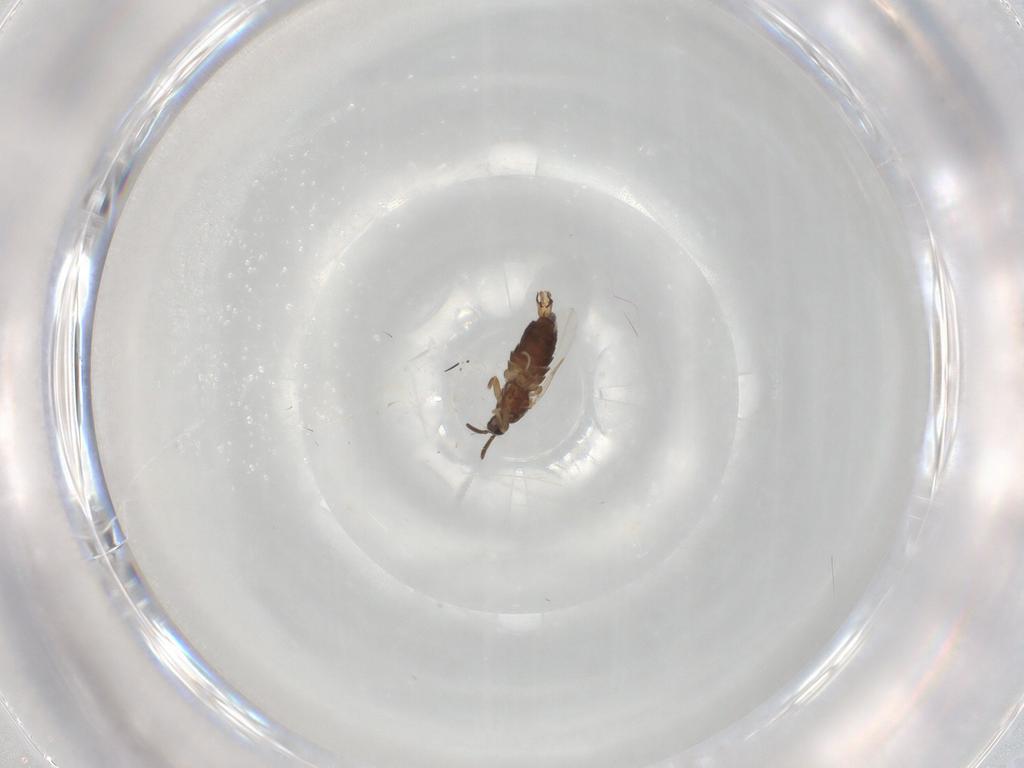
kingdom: Animalia
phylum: Arthropoda
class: Insecta
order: Diptera
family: Scatopsidae
